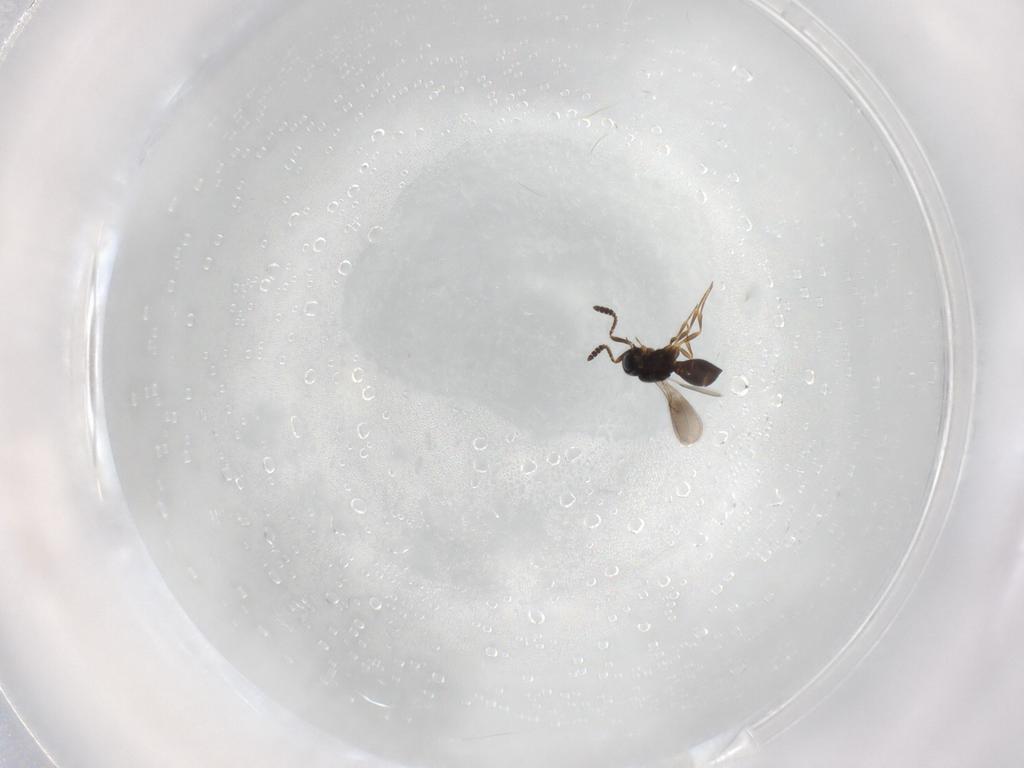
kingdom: Animalia
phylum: Arthropoda
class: Insecta
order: Hymenoptera
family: Scelionidae
